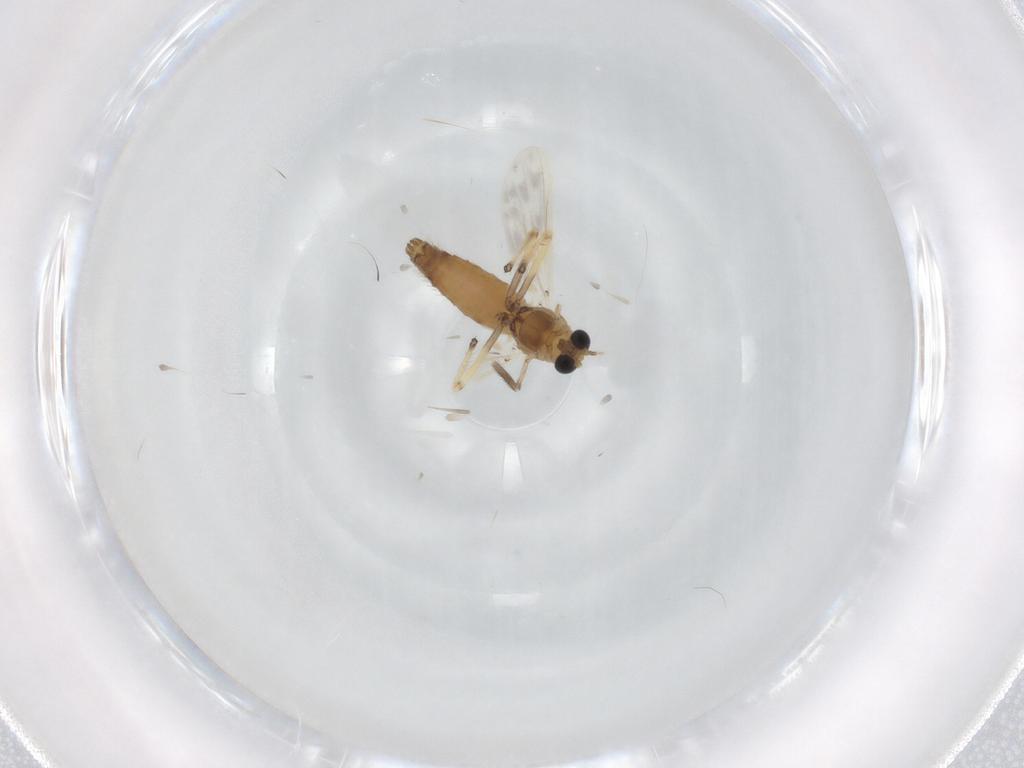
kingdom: Animalia
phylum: Arthropoda
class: Insecta
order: Diptera
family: Chironomidae
